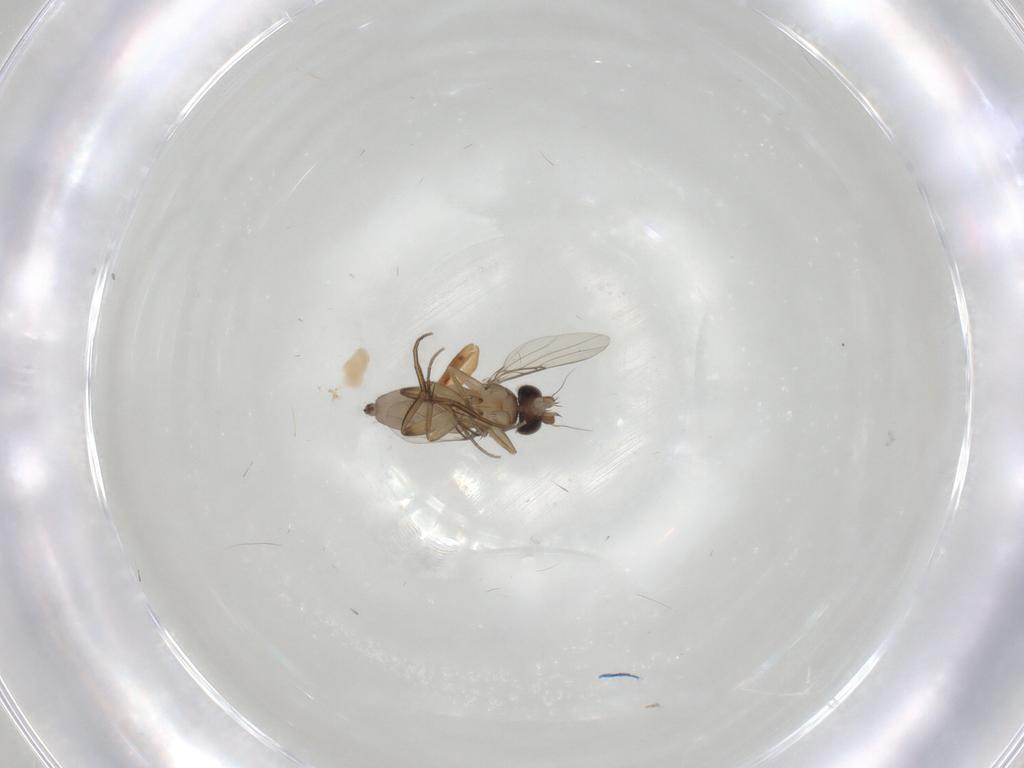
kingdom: Animalia
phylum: Arthropoda
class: Insecta
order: Diptera
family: Phoridae
